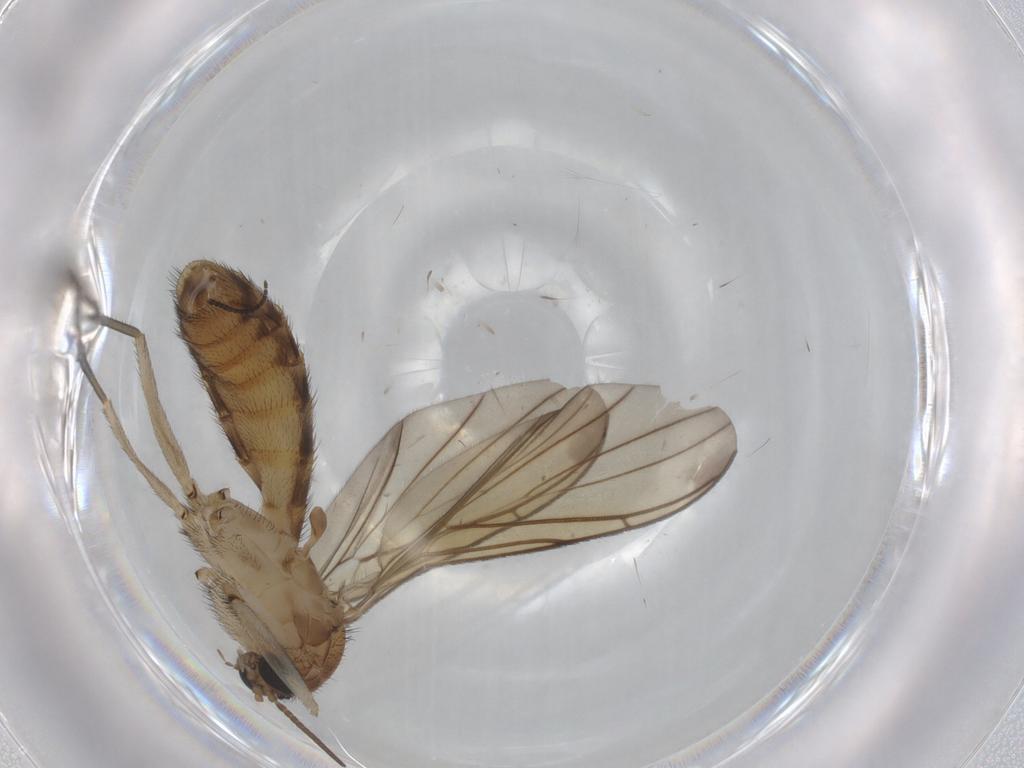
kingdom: Animalia
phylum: Arthropoda
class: Insecta
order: Diptera
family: Keroplatidae
